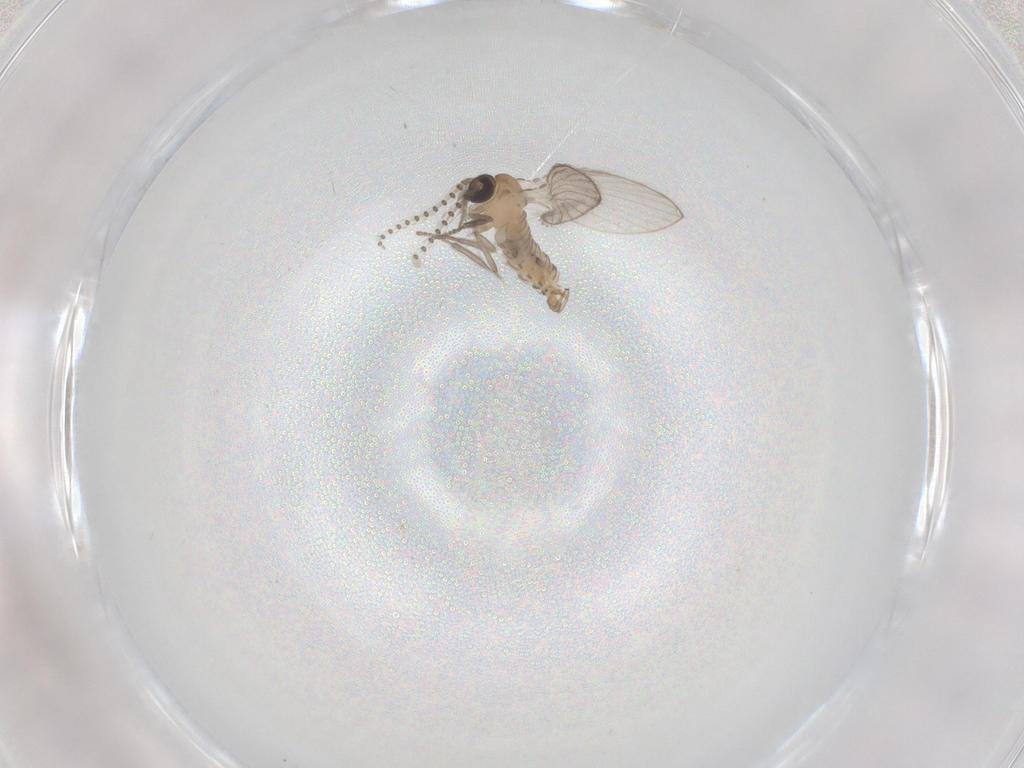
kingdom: Animalia
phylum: Arthropoda
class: Insecta
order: Diptera
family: Psychodidae
